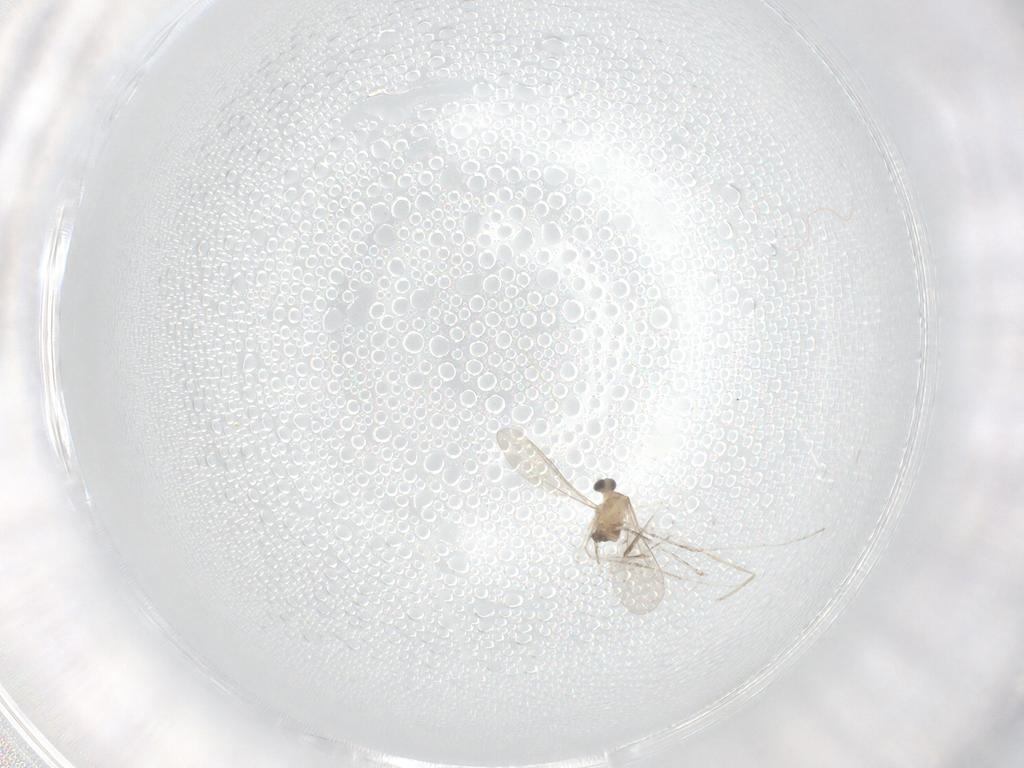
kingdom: Animalia
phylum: Arthropoda
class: Insecta
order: Diptera
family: Cecidomyiidae
